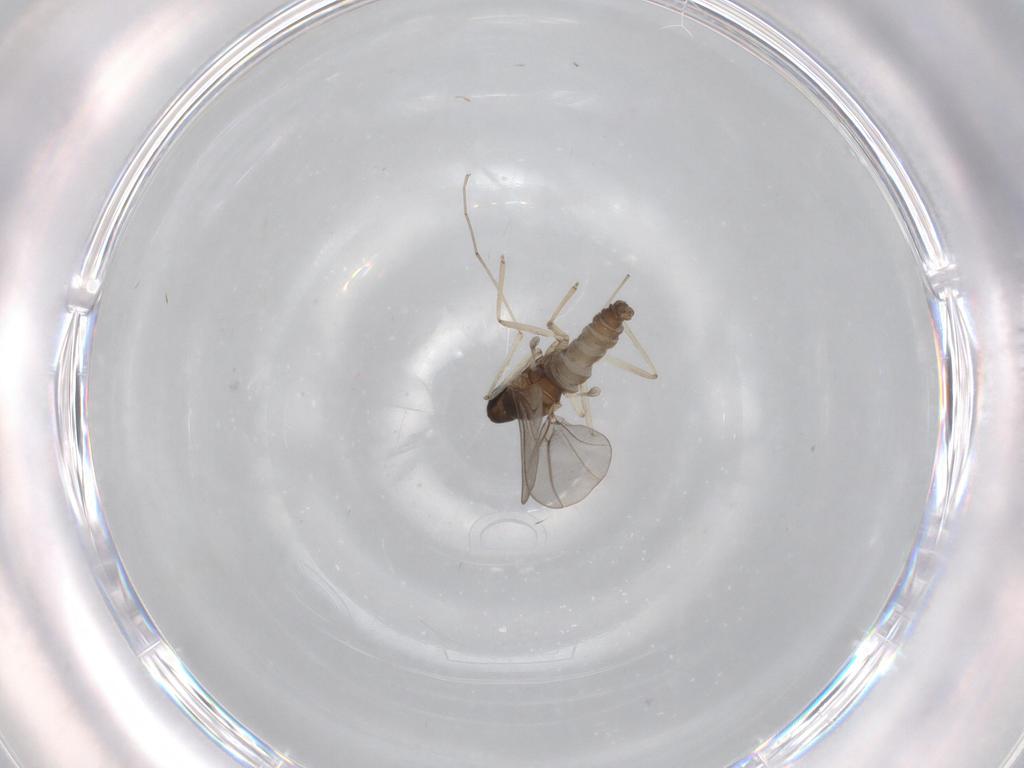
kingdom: Animalia
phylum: Arthropoda
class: Insecta
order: Diptera
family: Cecidomyiidae
